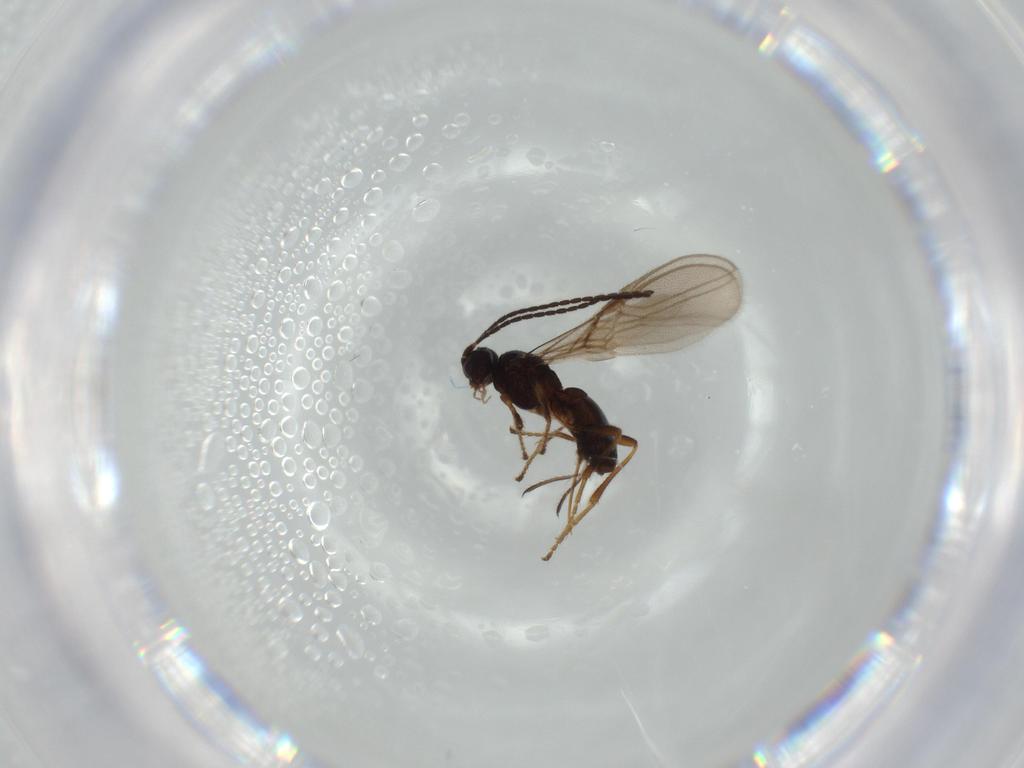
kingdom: Animalia
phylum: Arthropoda
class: Insecta
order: Hymenoptera
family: Braconidae
